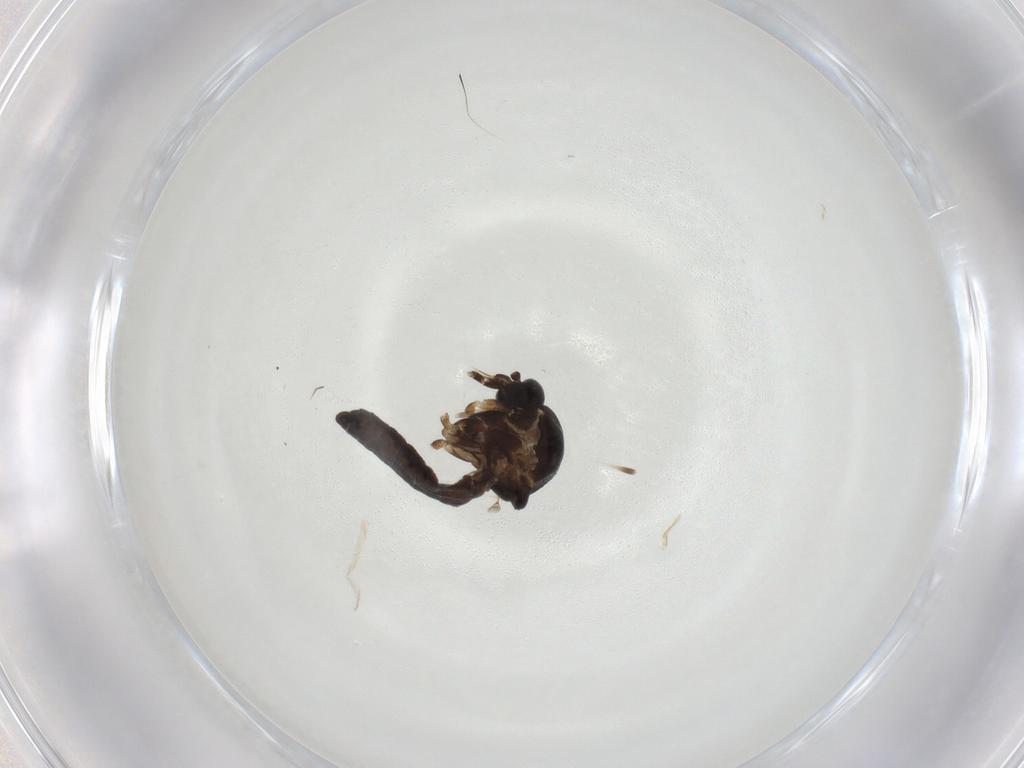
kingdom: Animalia
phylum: Arthropoda
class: Insecta
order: Diptera
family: Ceratopogonidae
